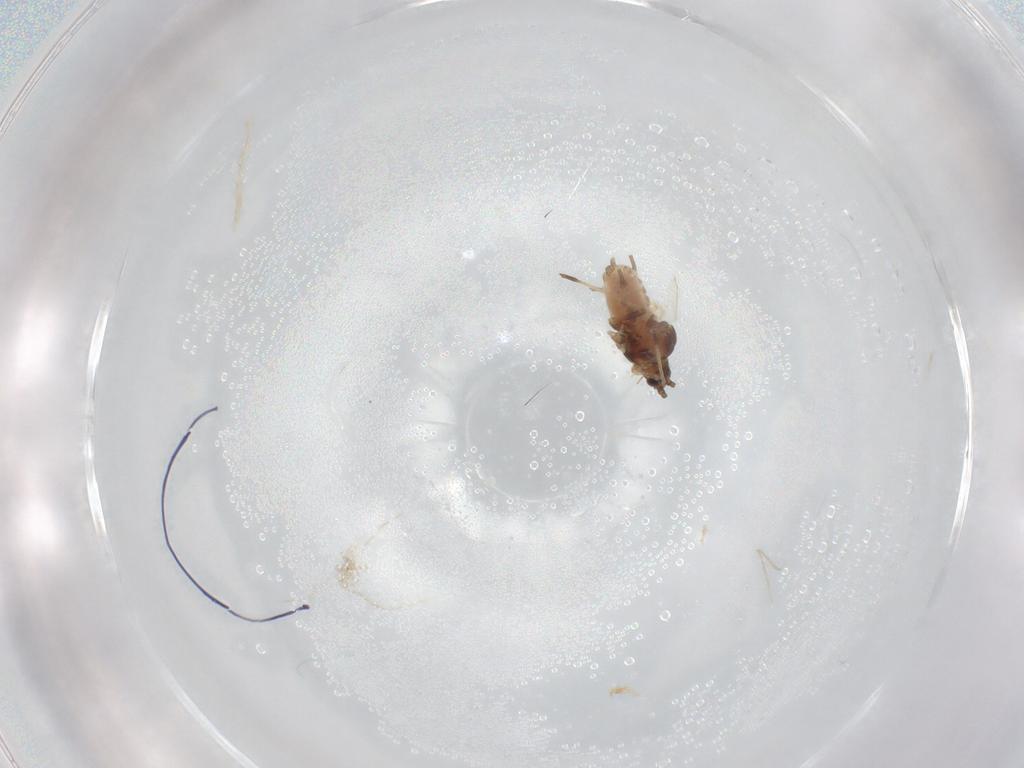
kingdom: Animalia
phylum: Arthropoda
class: Insecta
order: Hemiptera
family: Aphididae
